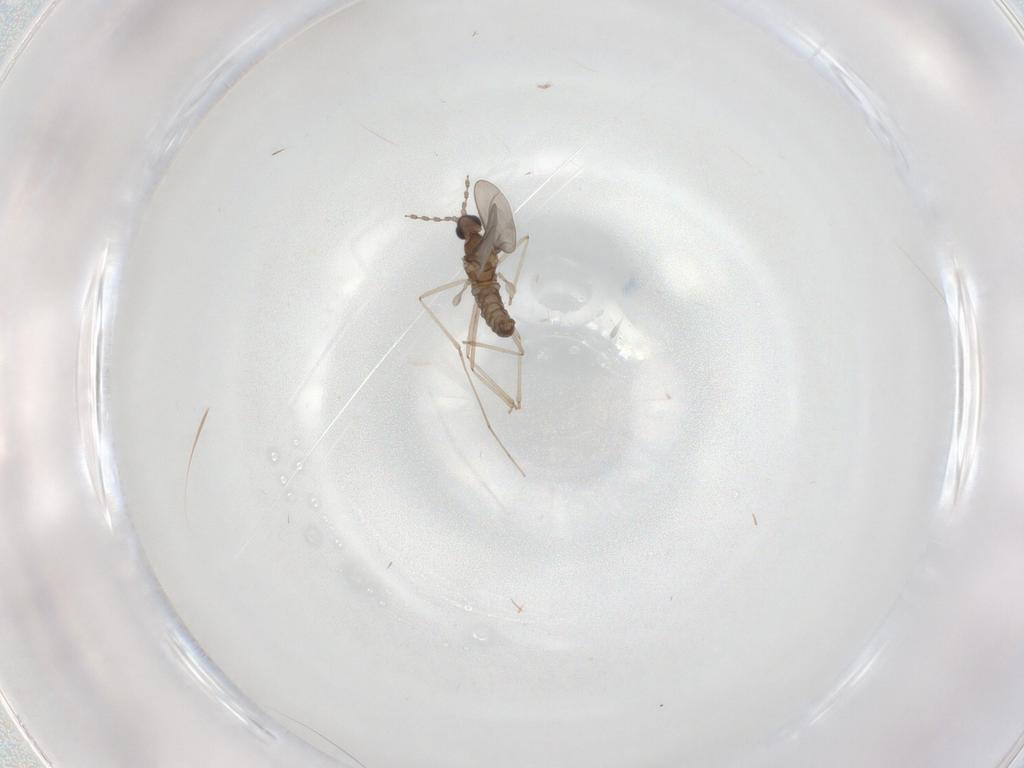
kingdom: Animalia
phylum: Arthropoda
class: Insecta
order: Diptera
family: Cecidomyiidae
